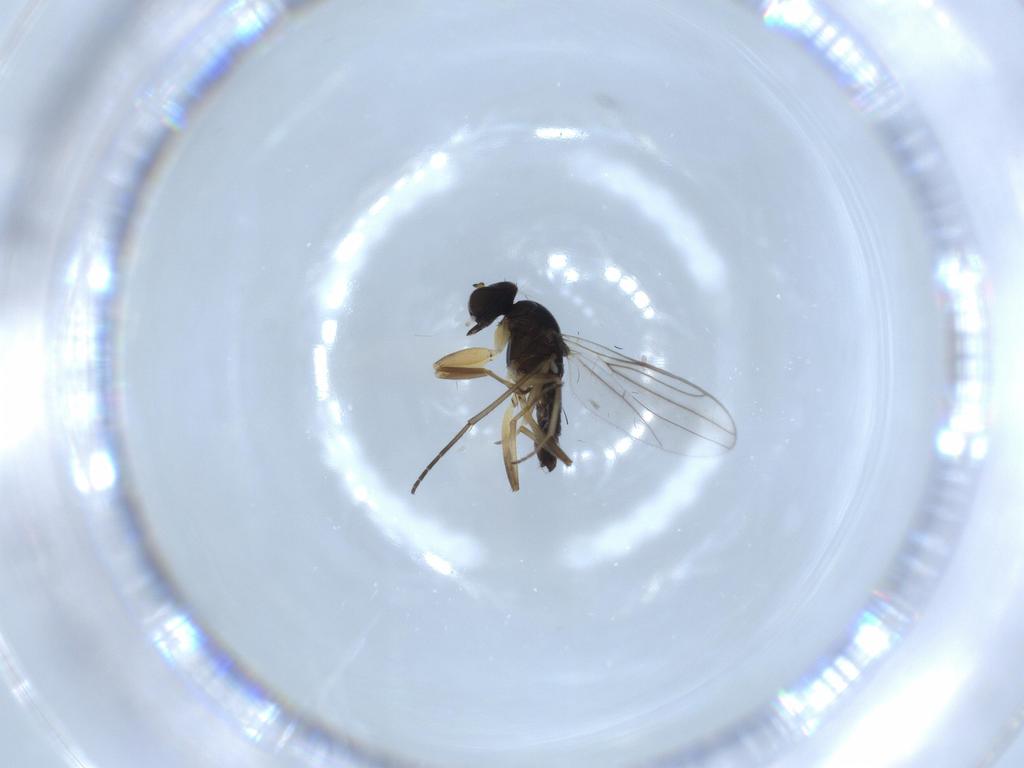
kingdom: Animalia
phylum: Arthropoda
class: Insecta
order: Diptera
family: Hybotidae
